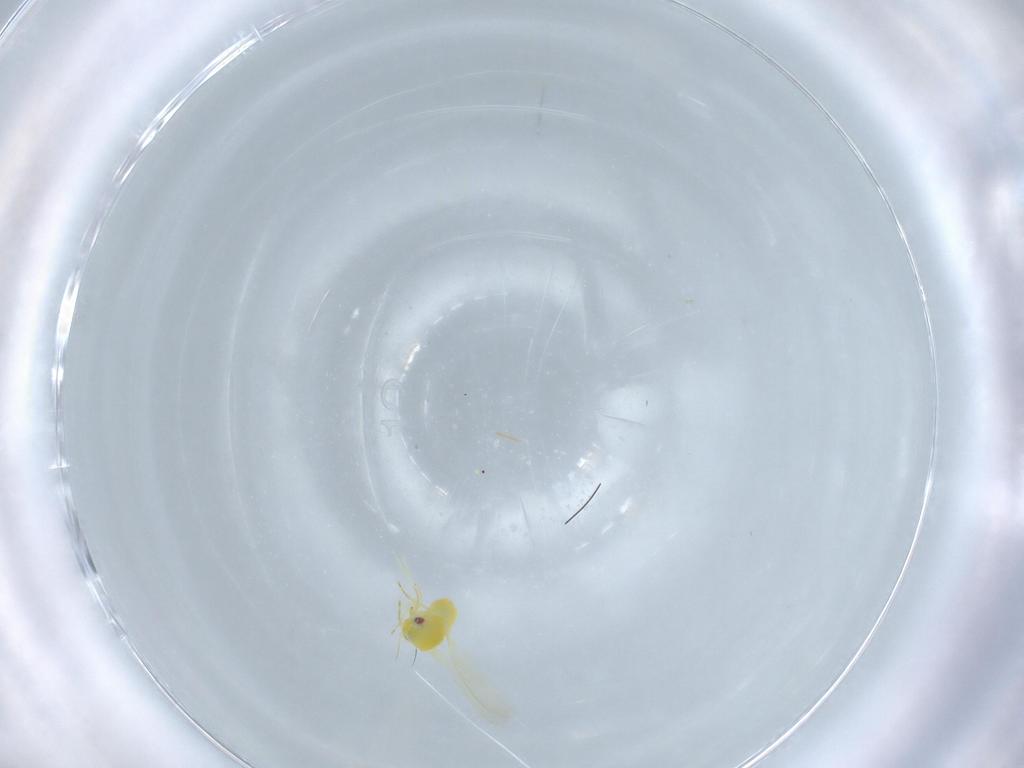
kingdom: Animalia
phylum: Arthropoda
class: Insecta
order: Hemiptera
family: Aleyrodidae
